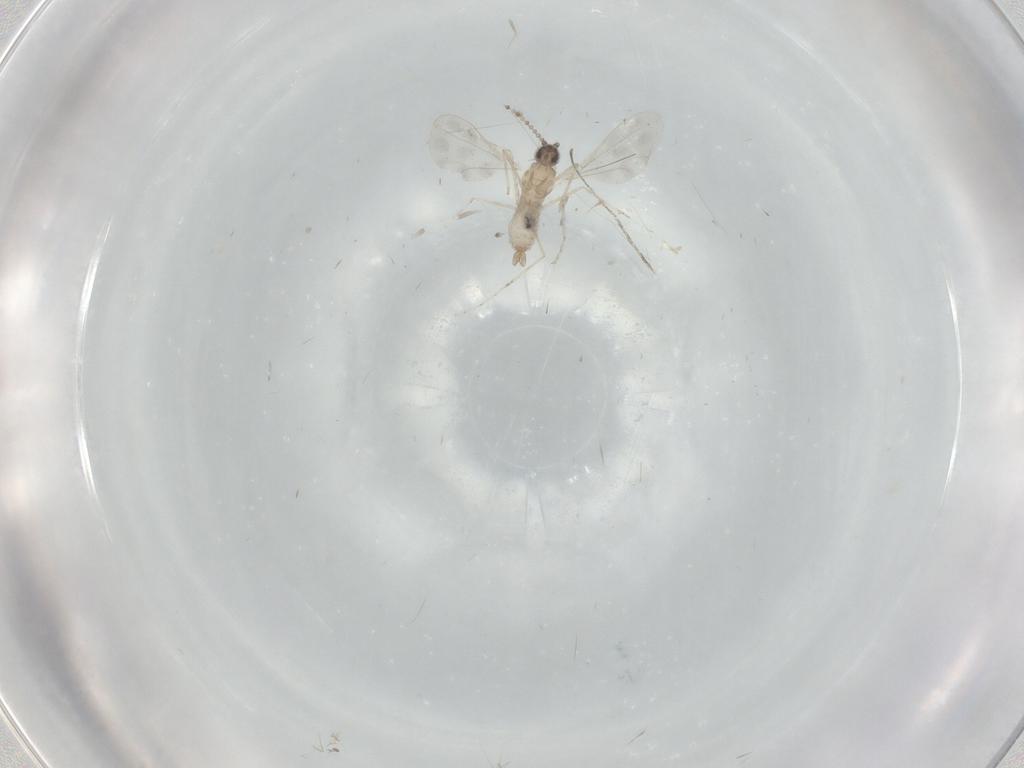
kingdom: Animalia
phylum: Arthropoda
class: Insecta
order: Diptera
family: Cecidomyiidae
